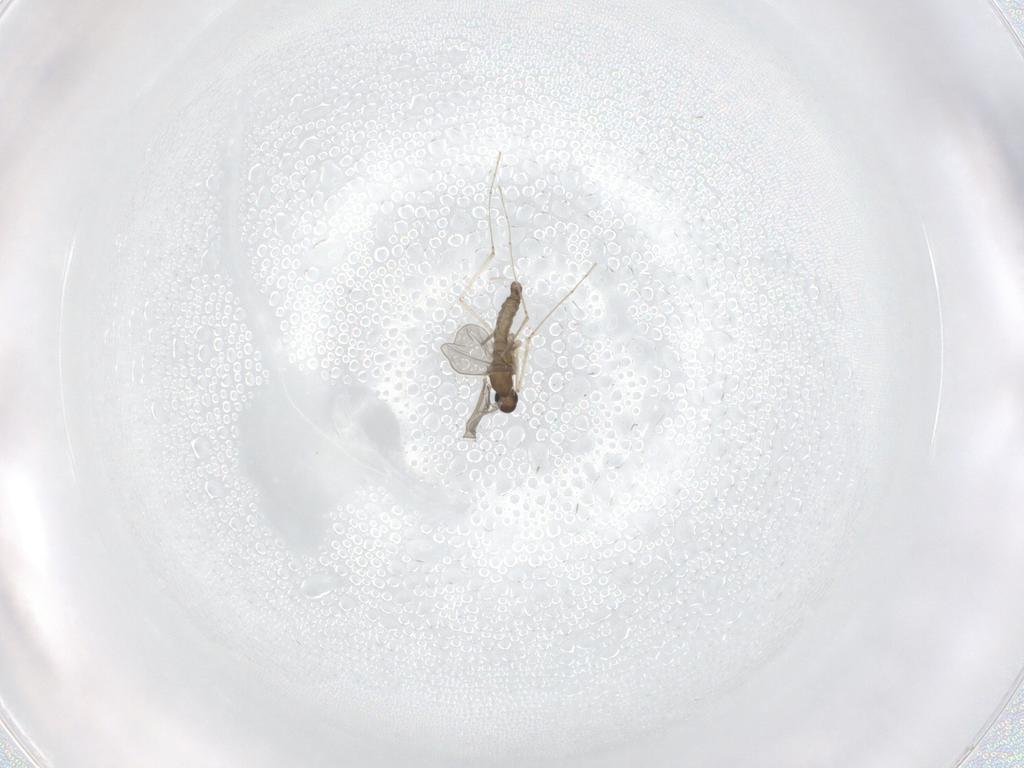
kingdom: Animalia
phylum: Arthropoda
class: Insecta
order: Diptera
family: Cecidomyiidae
